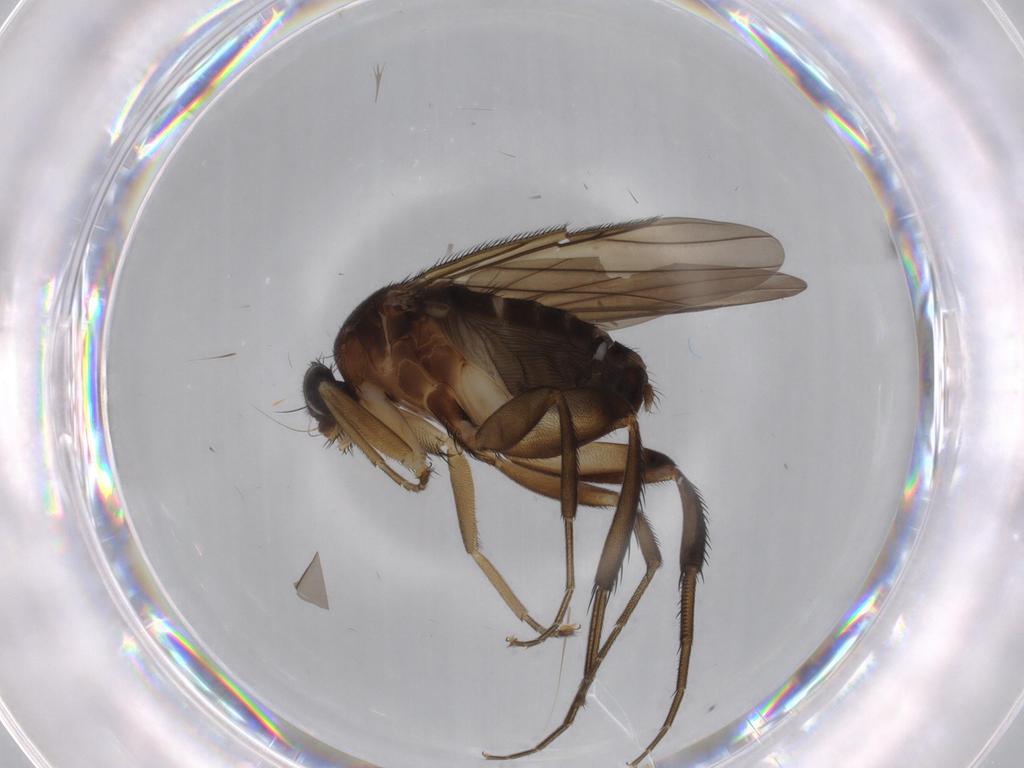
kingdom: Animalia
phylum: Arthropoda
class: Insecta
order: Diptera
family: Phoridae
